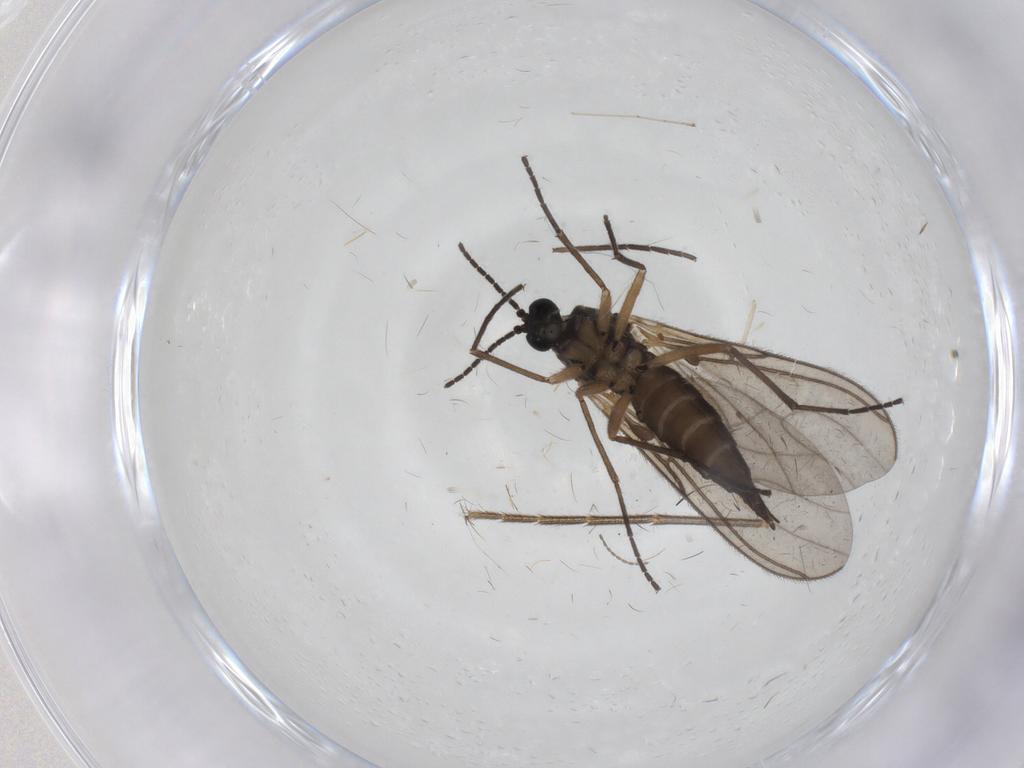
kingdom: Animalia
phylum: Arthropoda
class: Insecta
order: Diptera
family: Sciaridae
